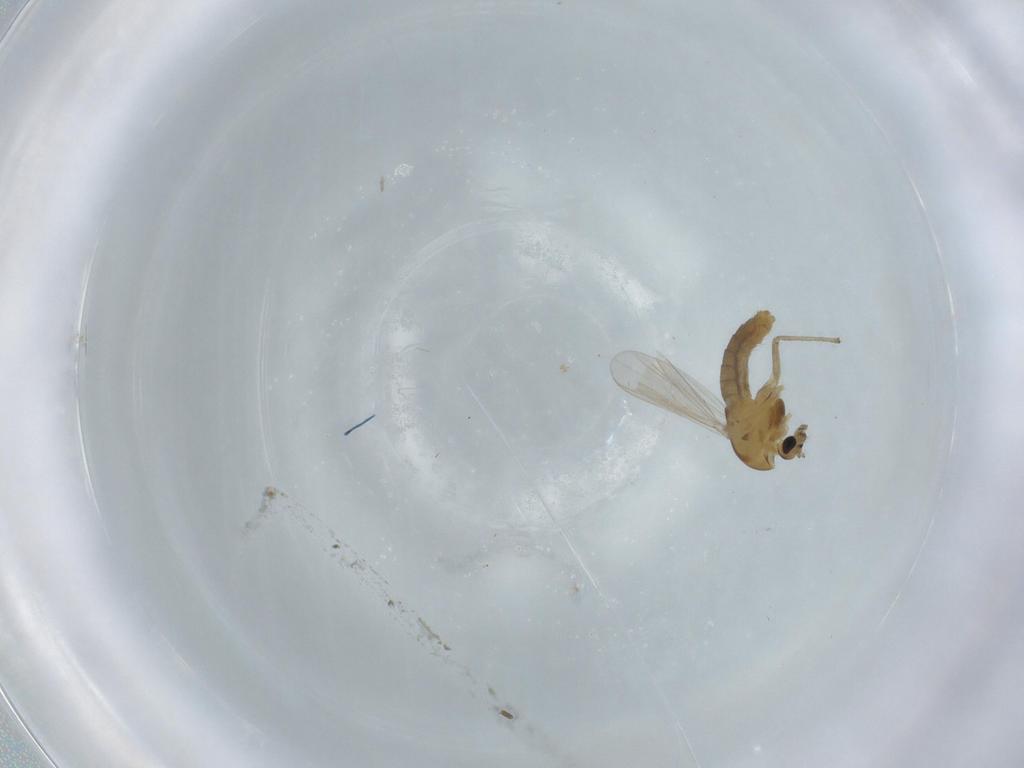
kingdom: Animalia
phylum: Arthropoda
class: Insecta
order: Diptera
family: Chironomidae
